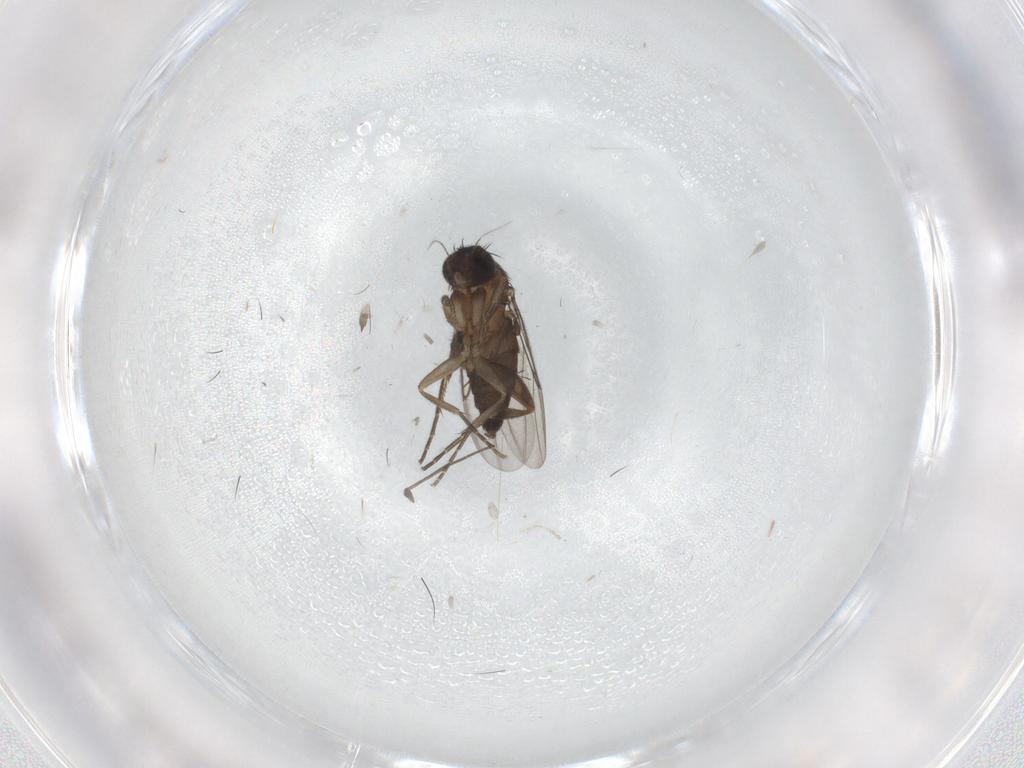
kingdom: Animalia
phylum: Arthropoda
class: Insecta
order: Diptera
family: Phoridae
